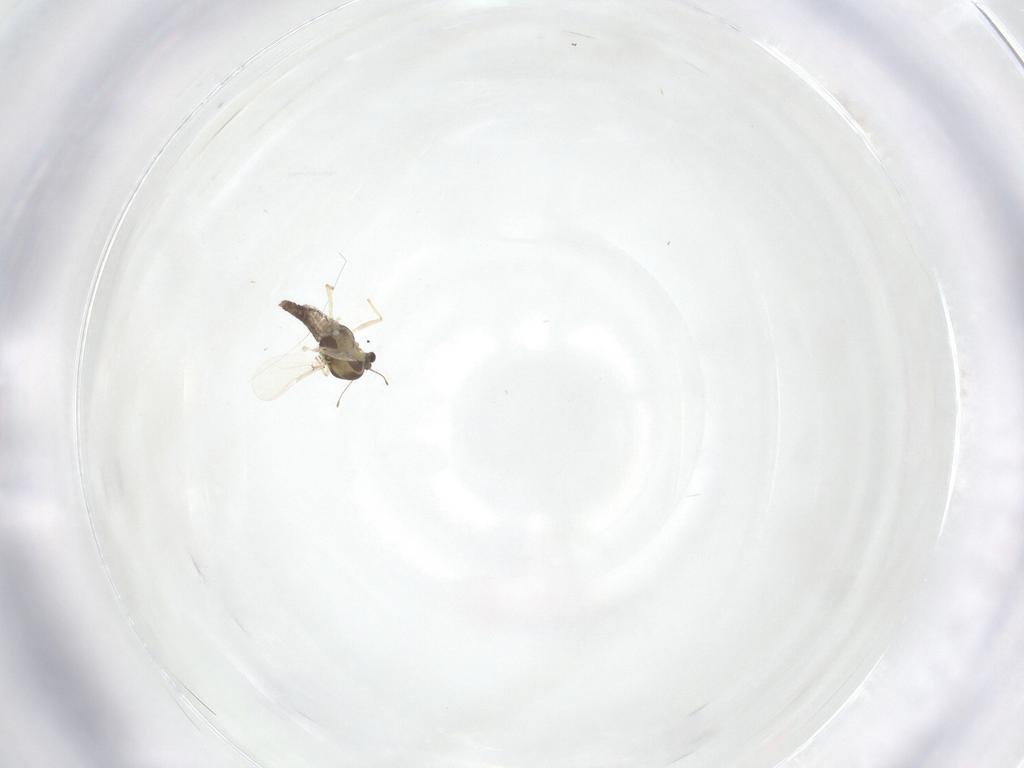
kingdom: Animalia
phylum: Arthropoda
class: Insecta
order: Diptera
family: Chironomidae
